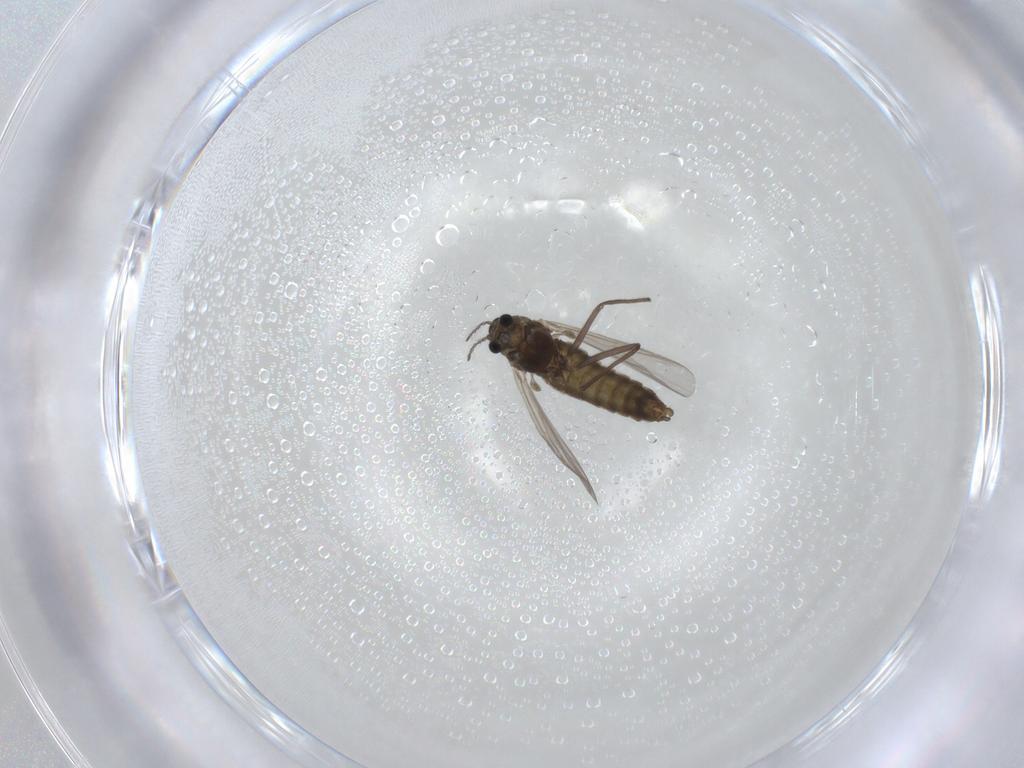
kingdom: Animalia
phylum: Arthropoda
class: Insecta
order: Diptera
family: Chironomidae
